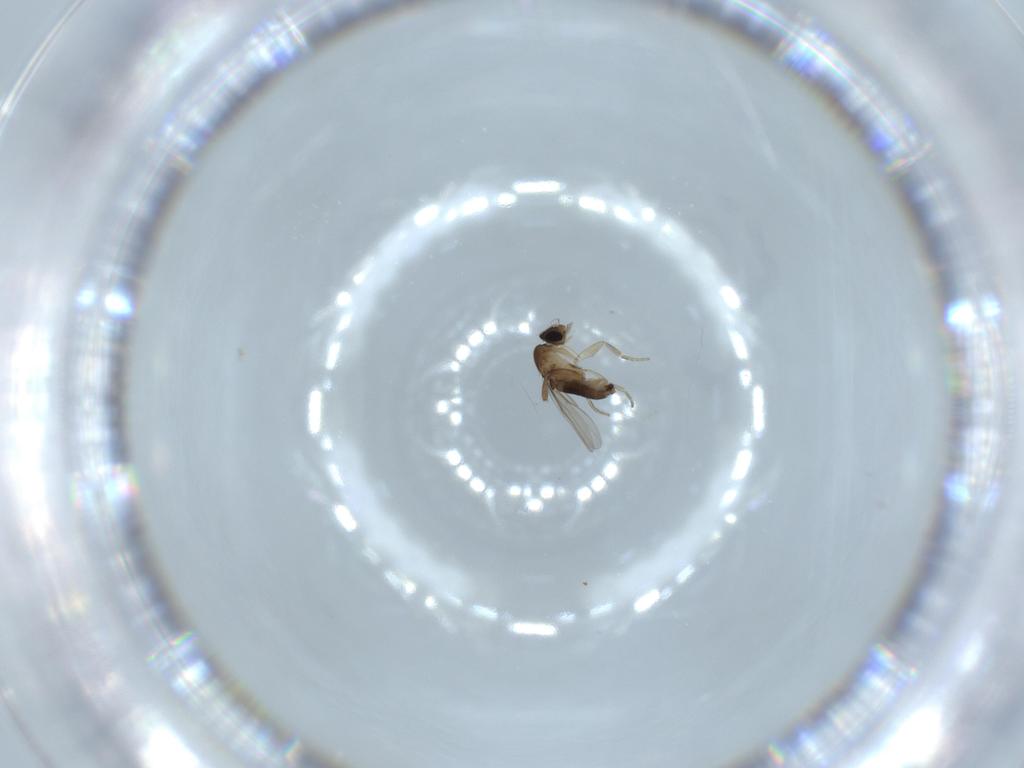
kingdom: Animalia
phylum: Arthropoda
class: Insecta
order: Diptera
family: Phoridae
